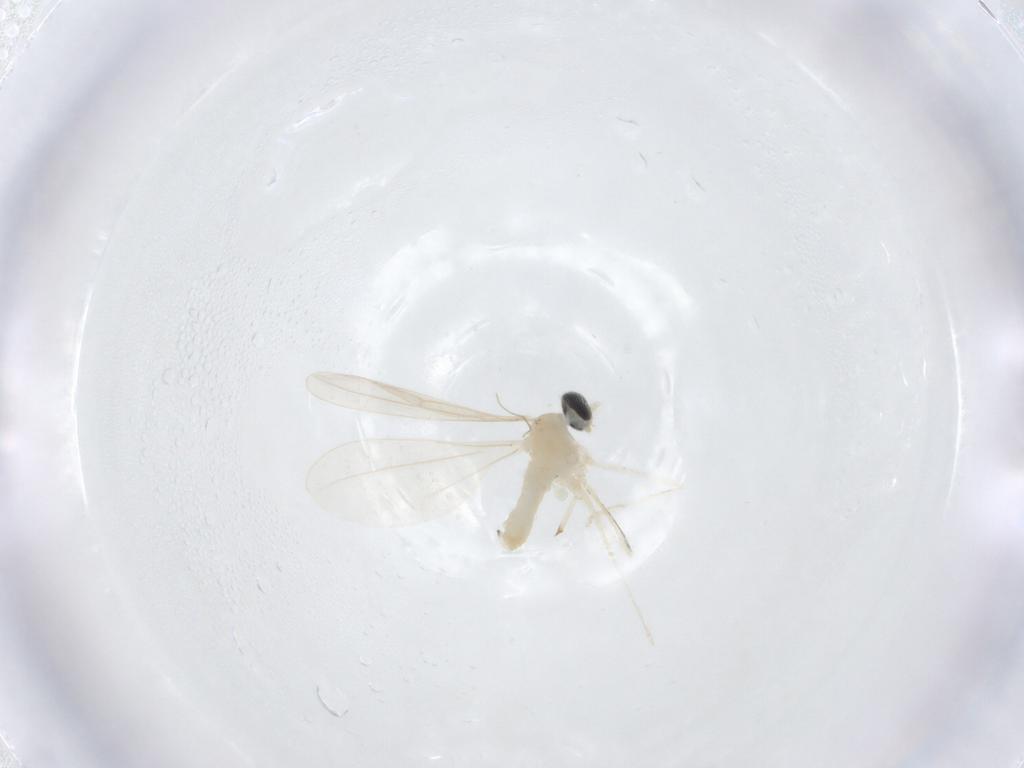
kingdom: Animalia
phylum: Arthropoda
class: Insecta
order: Diptera
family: Cecidomyiidae
